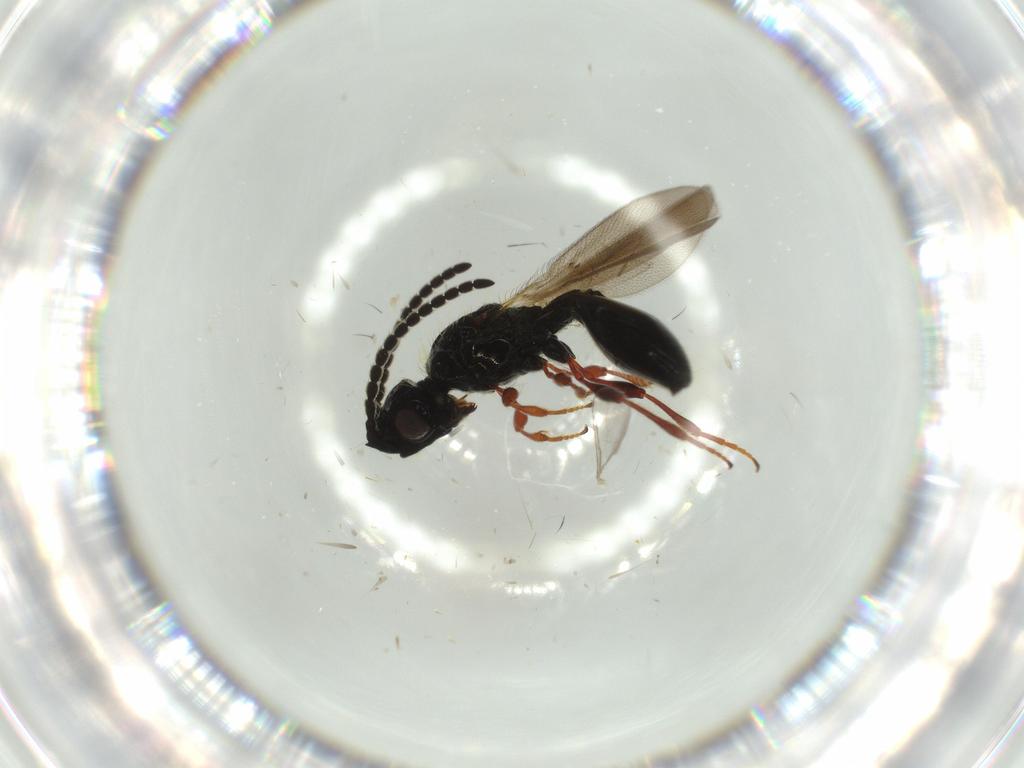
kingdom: Animalia
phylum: Arthropoda
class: Insecta
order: Hymenoptera
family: Diapriidae
